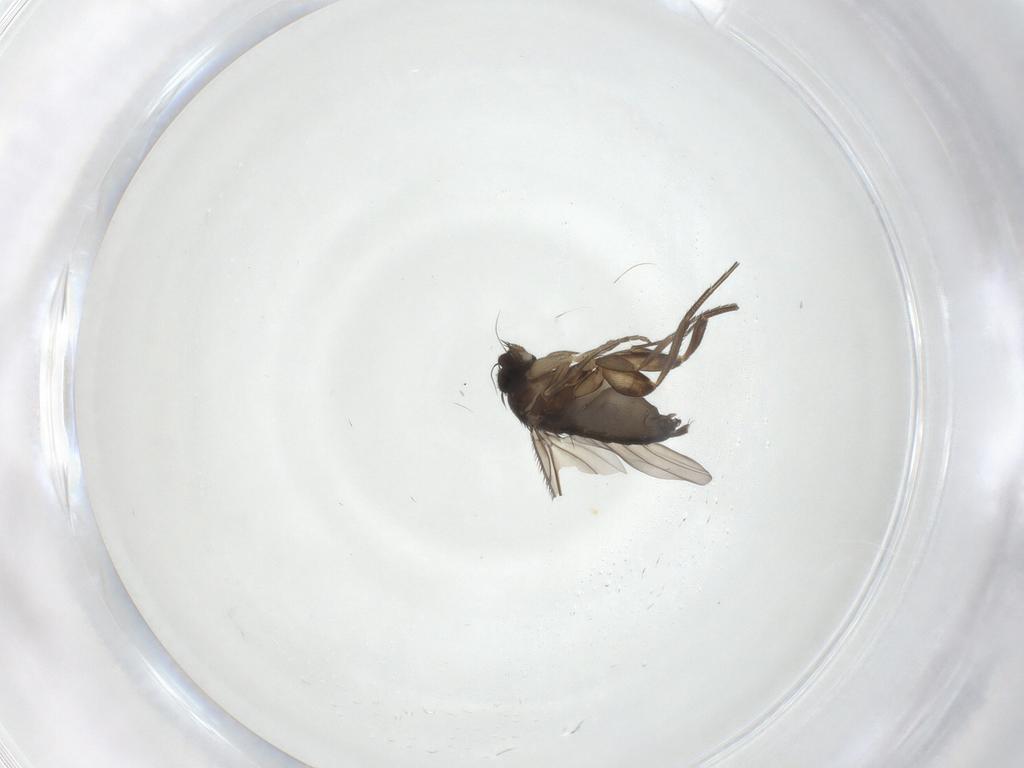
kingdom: Animalia
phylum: Arthropoda
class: Insecta
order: Diptera
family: Phoridae
